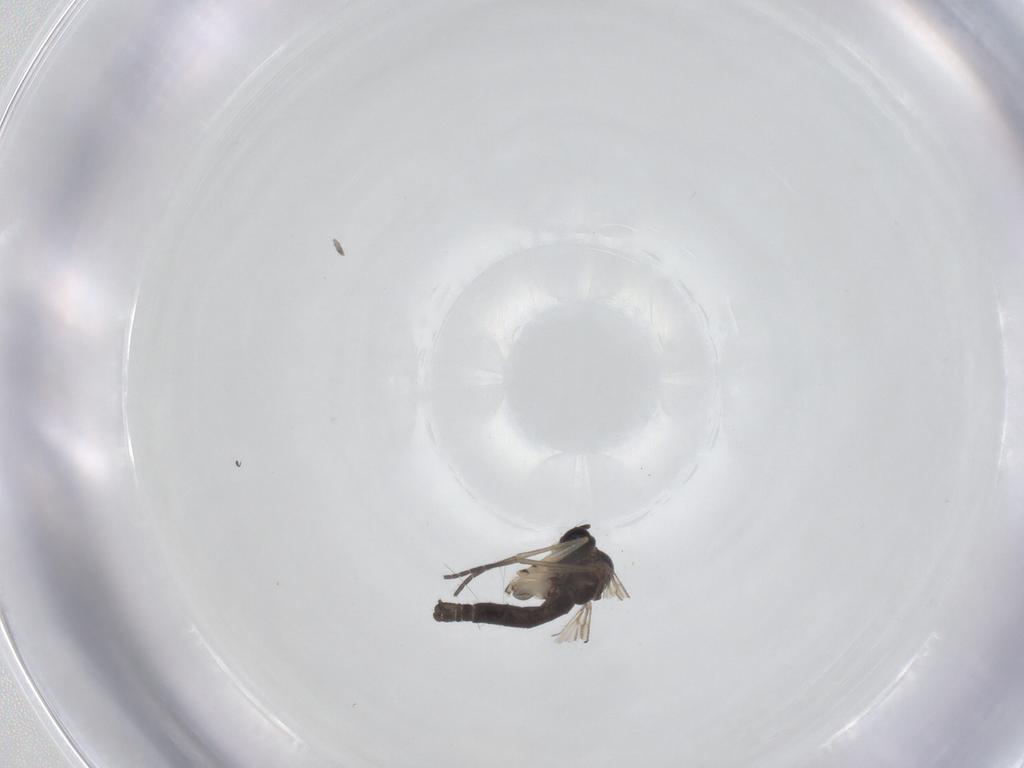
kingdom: Animalia
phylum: Arthropoda
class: Insecta
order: Diptera
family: Sciaridae
